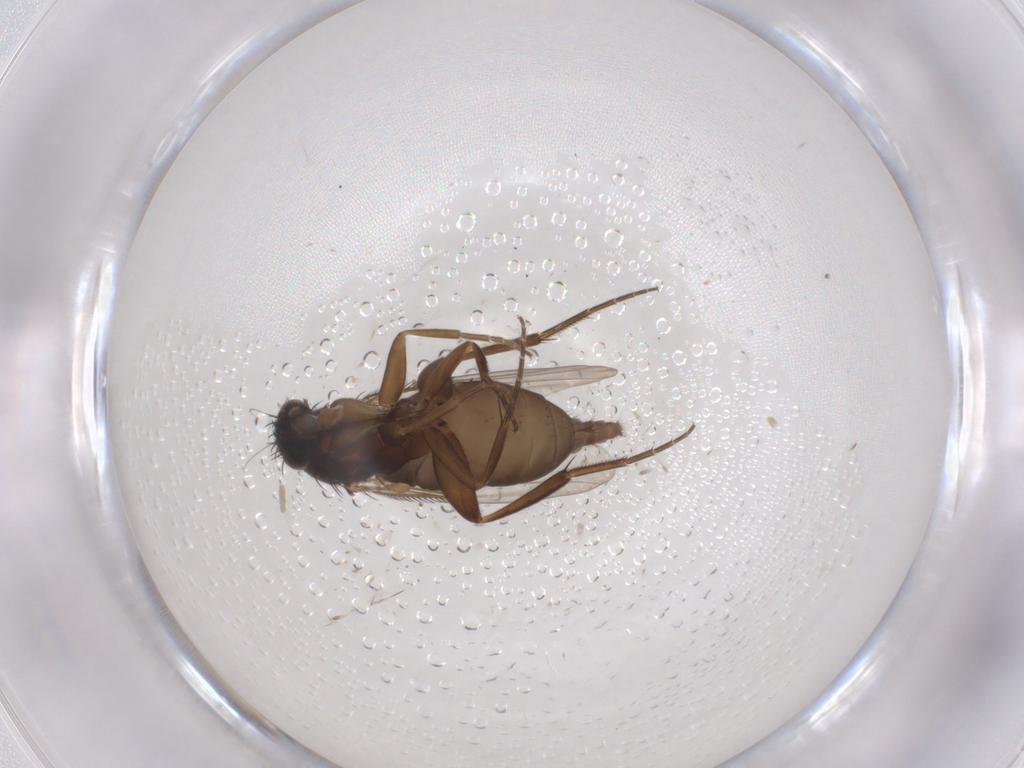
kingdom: Animalia
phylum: Arthropoda
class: Insecta
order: Diptera
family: Phoridae
